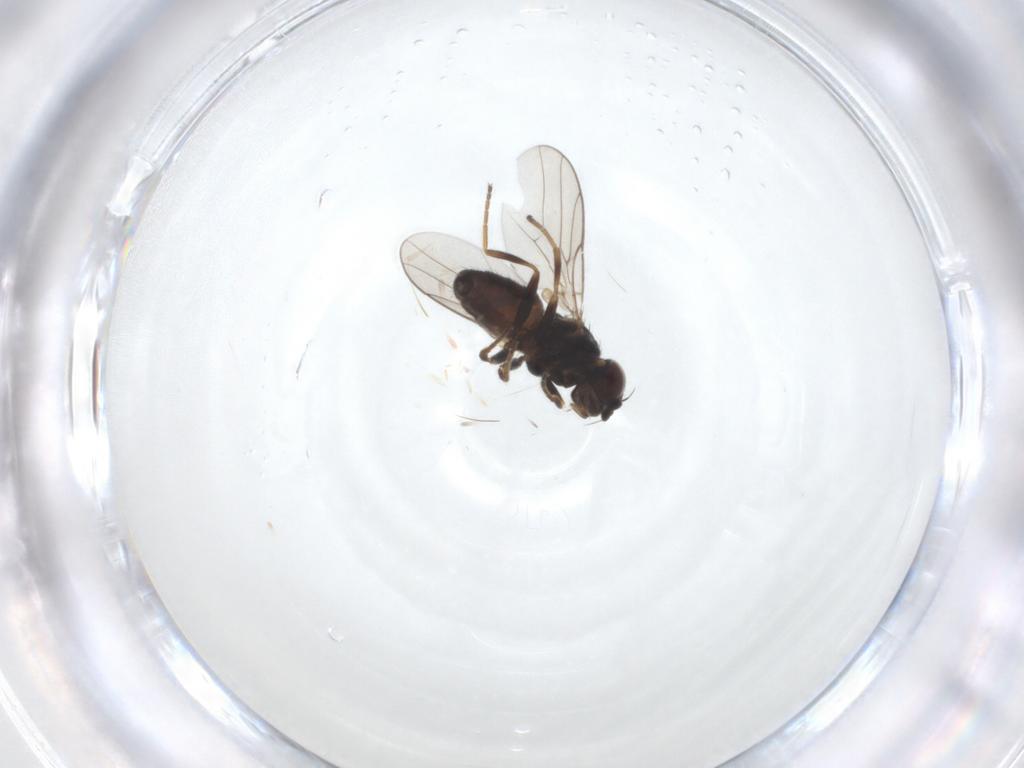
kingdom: Animalia
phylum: Arthropoda
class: Insecta
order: Diptera
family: Chloropidae
